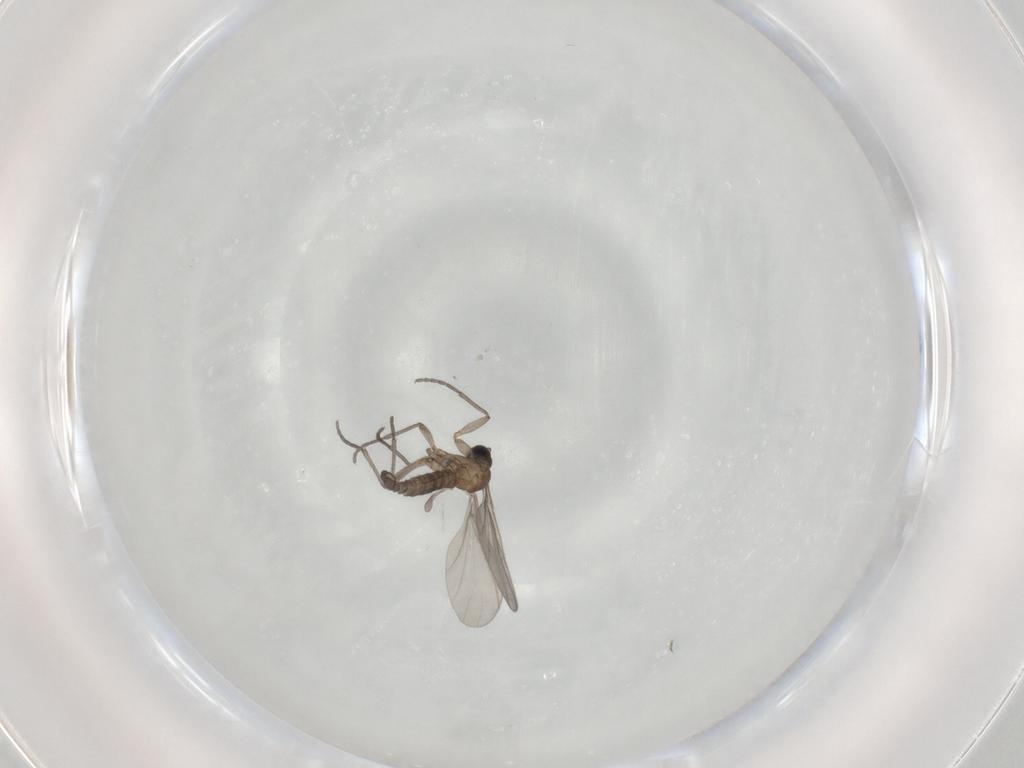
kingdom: Animalia
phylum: Arthropoda
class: Insecta
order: Diptera
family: Sciaridae
